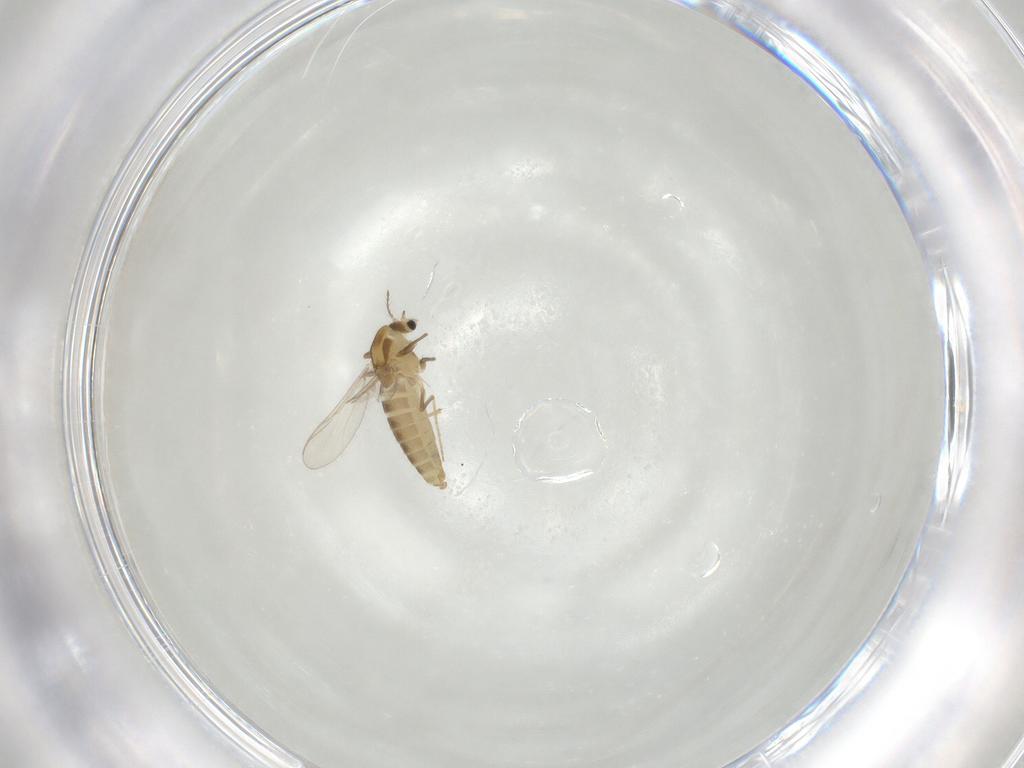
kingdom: Animalia
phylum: Arthropoda
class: Insecta
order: Diptera
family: Chironomidae
